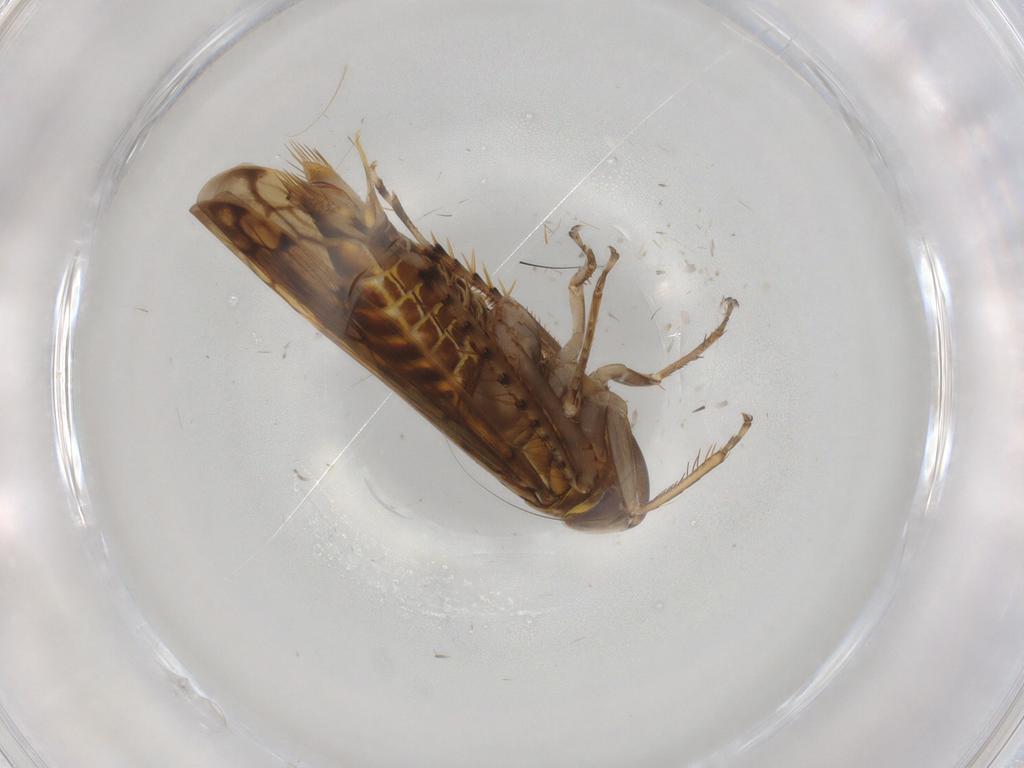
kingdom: Animalia
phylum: Arthropoda
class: Insecta
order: Hemiptera
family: Cicadellidae
